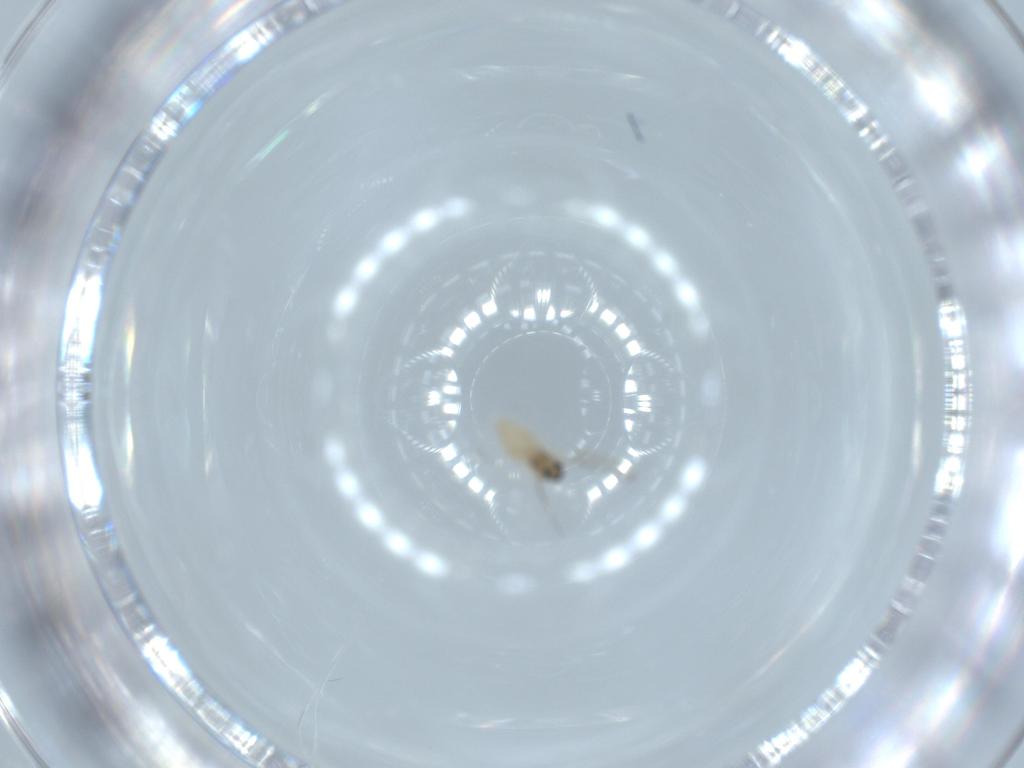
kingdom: Animalia
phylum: Arthropoda
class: Insecta
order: Diptera
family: Cecidomyiidae
